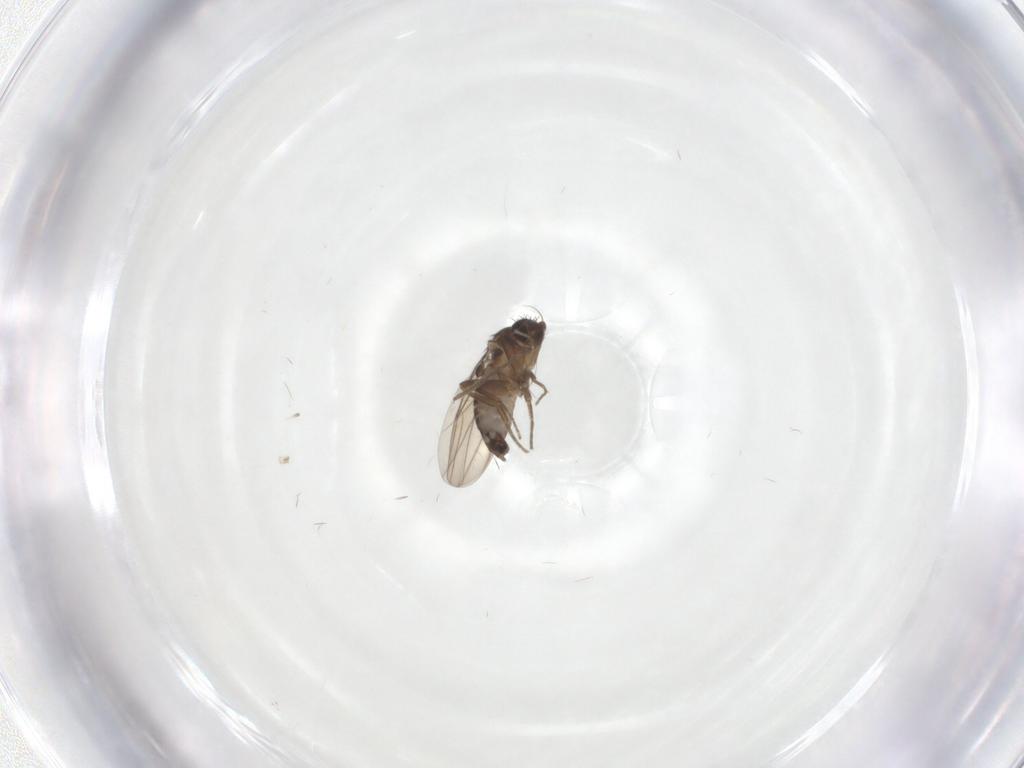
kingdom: Animalia
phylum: Arthropoda
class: Insecta
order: Diptera
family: Phoridae
